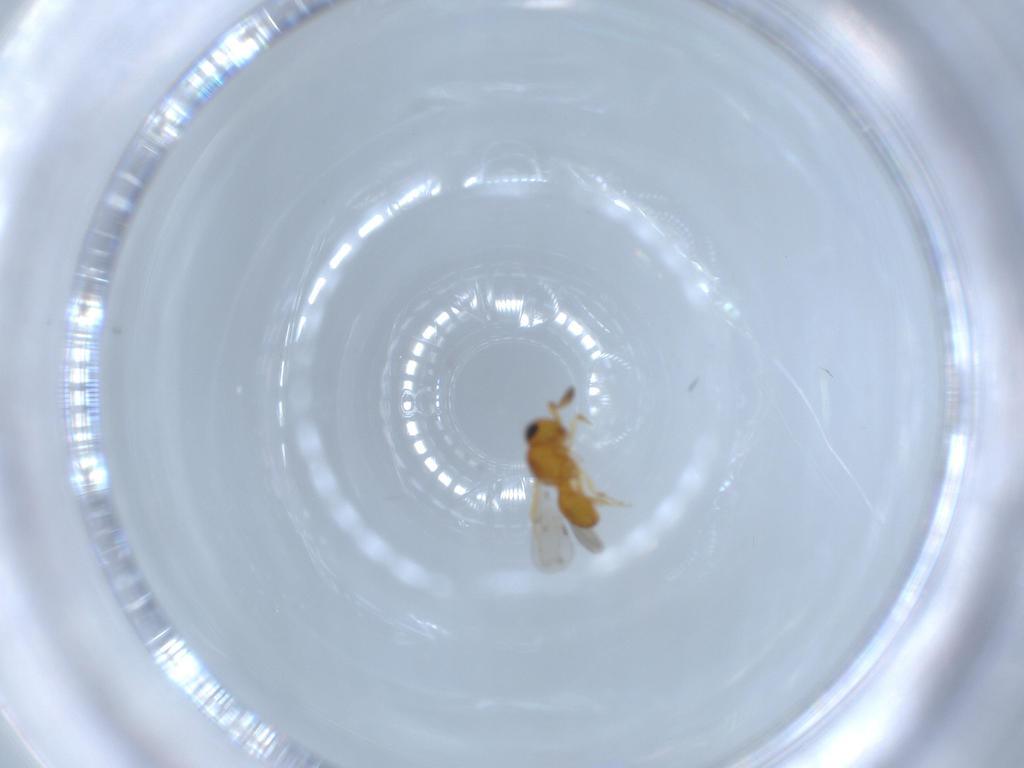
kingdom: Animalia
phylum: Arthropoda
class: Insecta
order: Hymenoptera
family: Scelionidae
